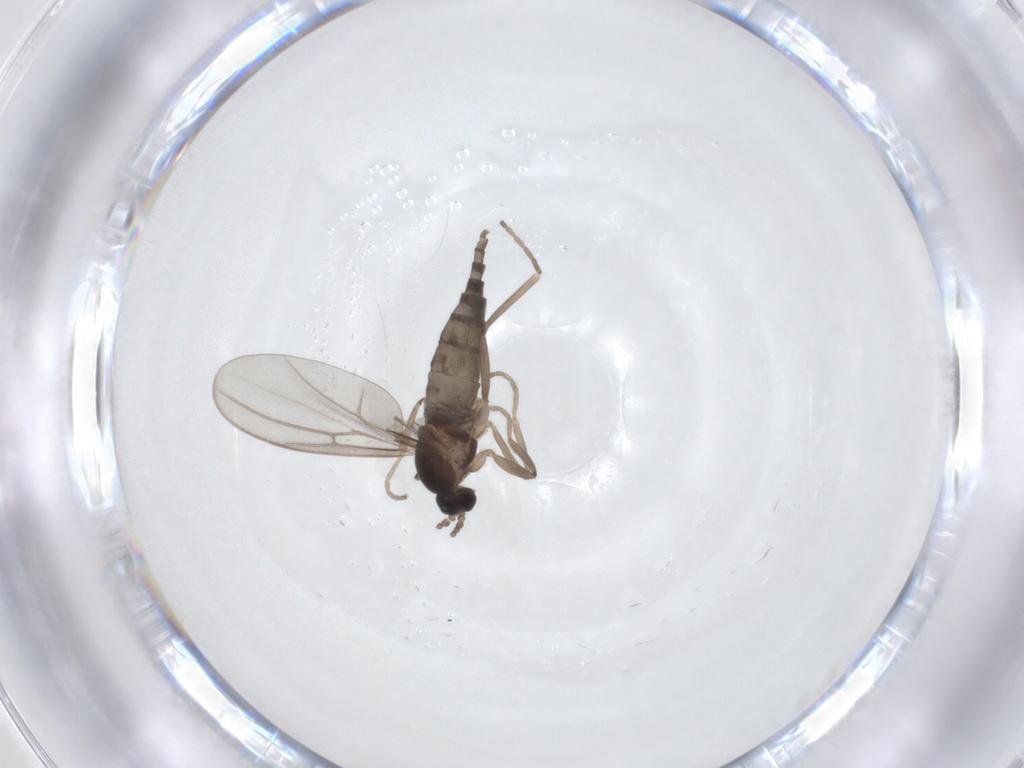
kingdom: Animalia
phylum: Arthropoda
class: Insecta
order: Diptera
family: Cecidomyiidae
